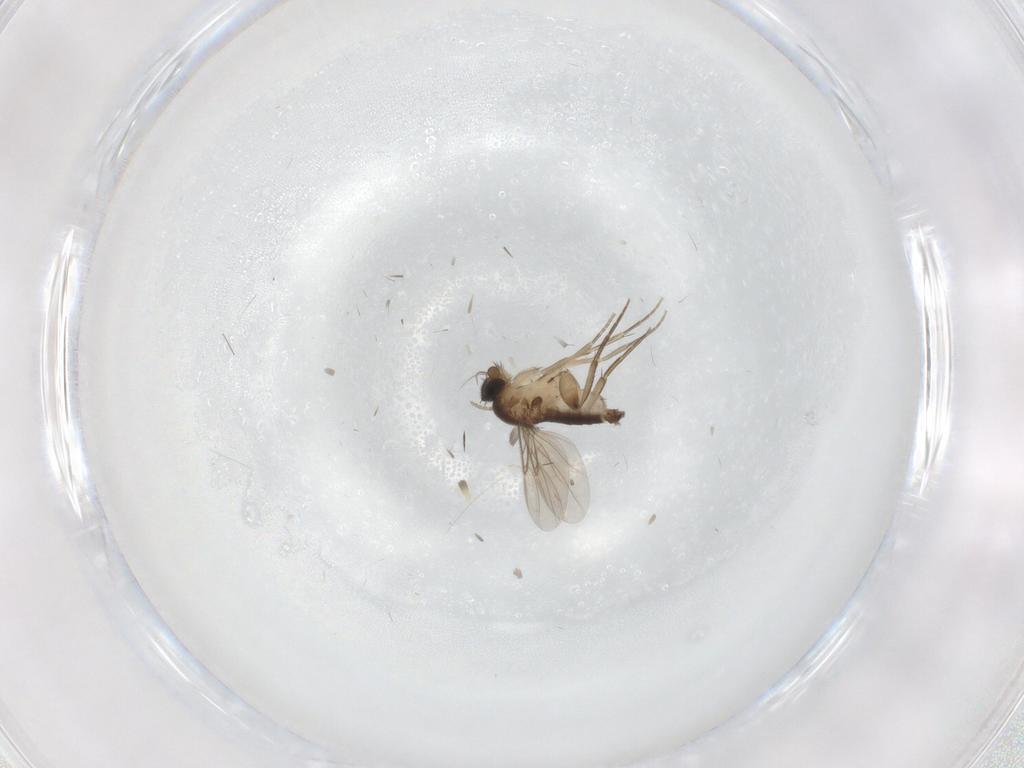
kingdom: Animalia
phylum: Arthropoda
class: Insecta
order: Diptera
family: Phoridae
